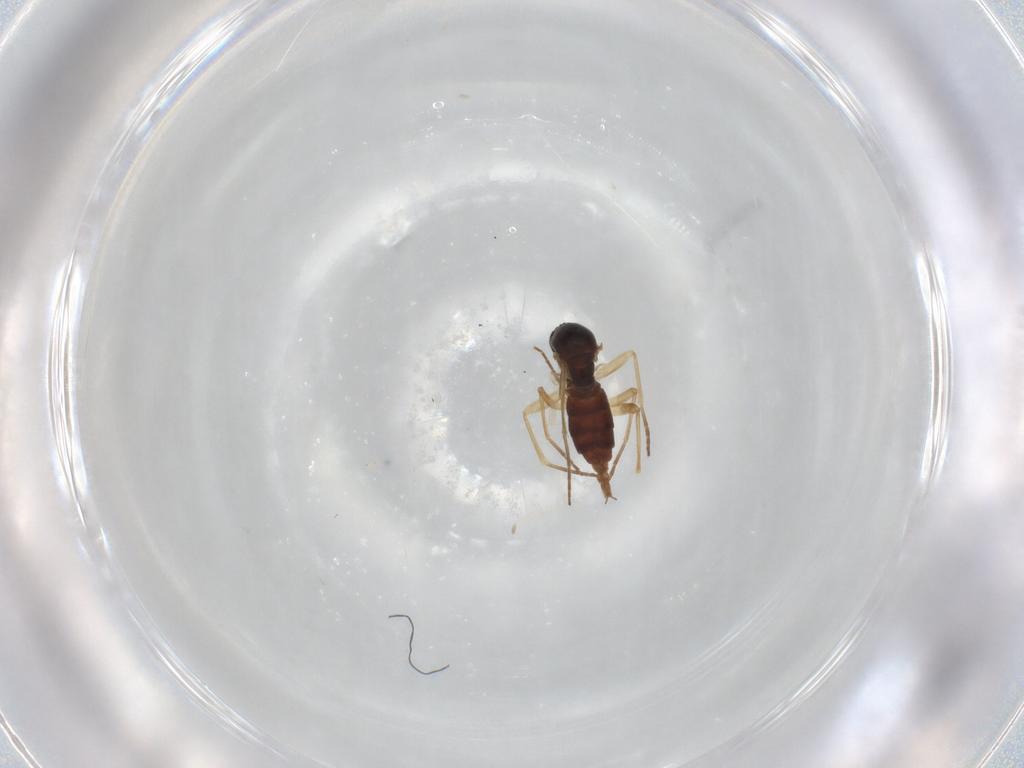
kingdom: Animalia
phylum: Arthropoda
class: Insecta
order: Diptera
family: Sciaridae
